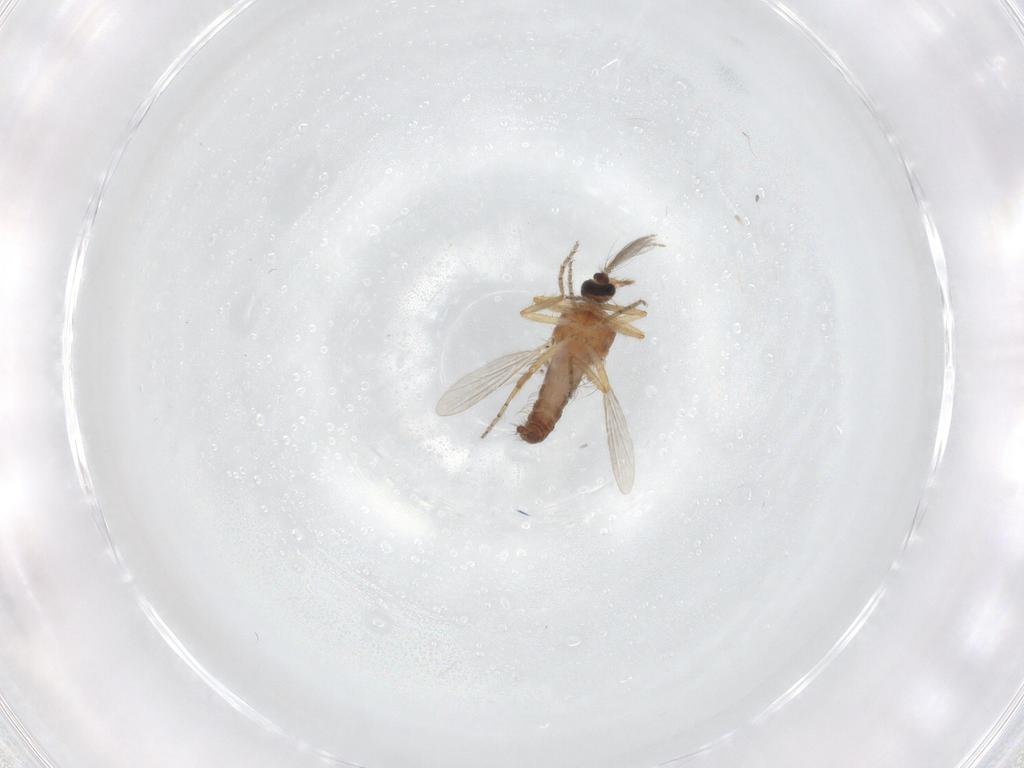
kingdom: Animalia
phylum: Arthropoda
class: Insecta
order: Diptera
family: Ceratopogonidae
